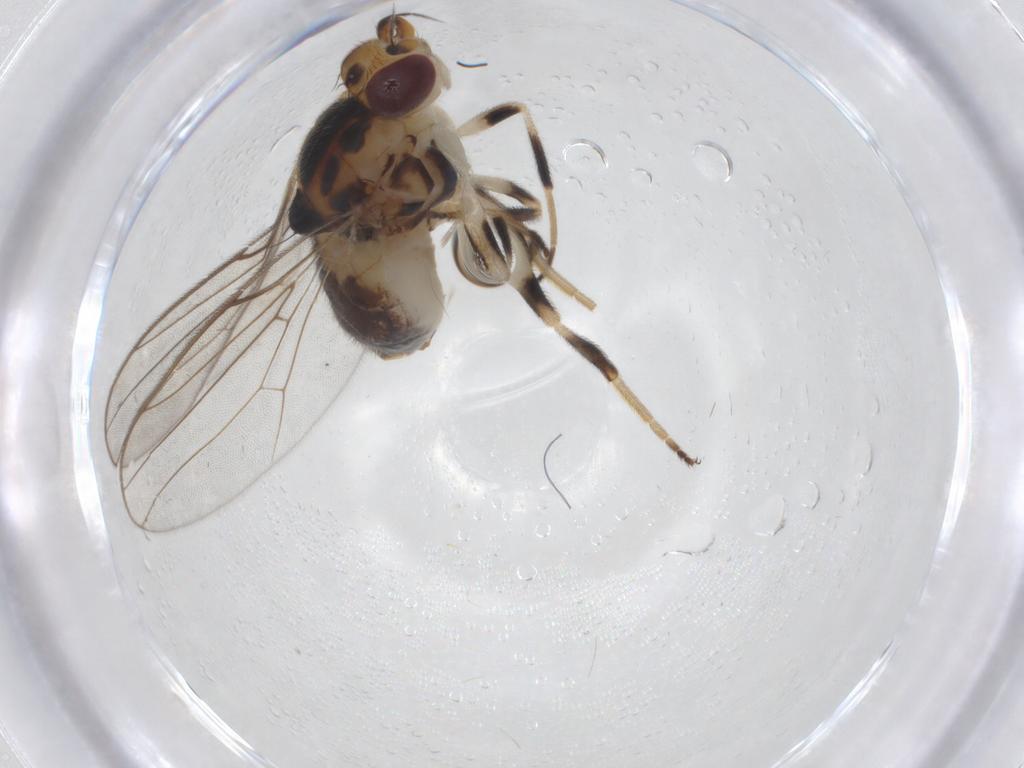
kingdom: Animalia
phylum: Arthropoda
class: Insecta
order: Diptera
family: Chloropidae
